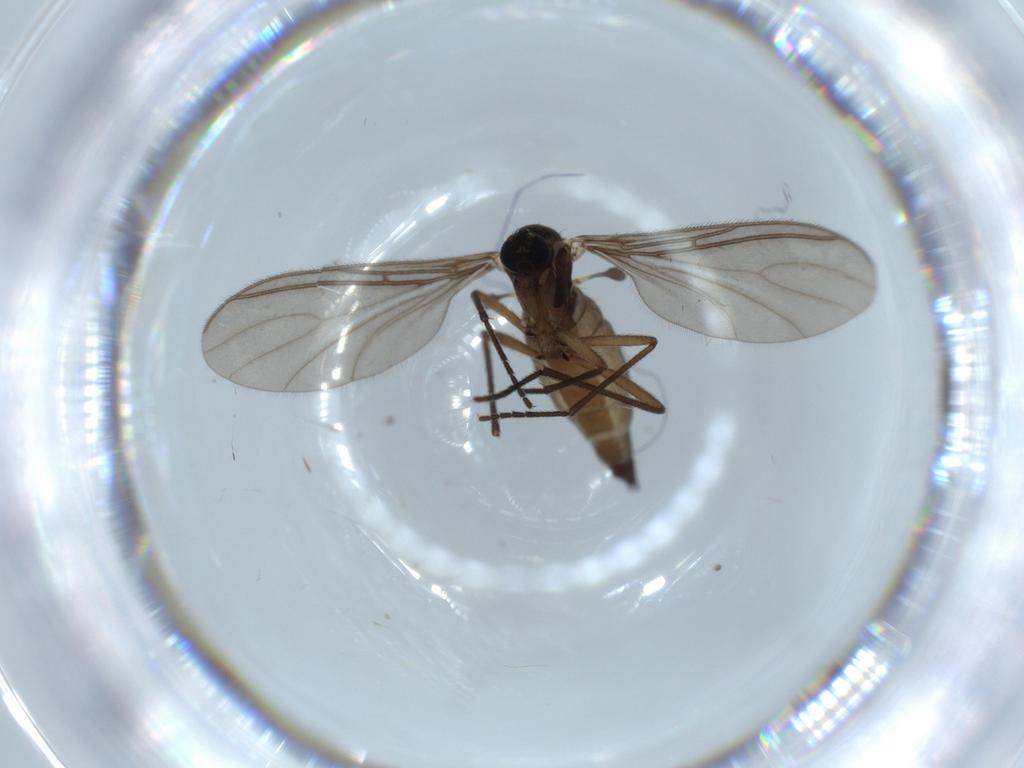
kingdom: Animalia
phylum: Arthropoda
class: Insecta
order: Diptera
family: Sciaridae
